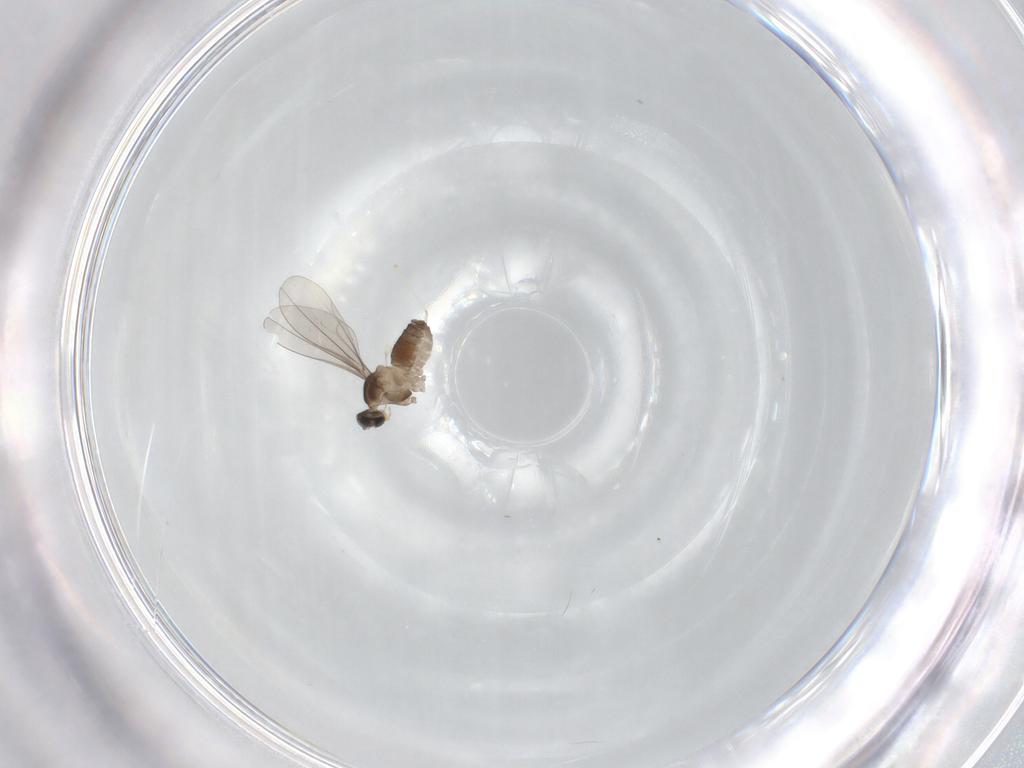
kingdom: Animalia
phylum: Arthropoda
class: Insecta
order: Diptera
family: Cecidomyiidae
